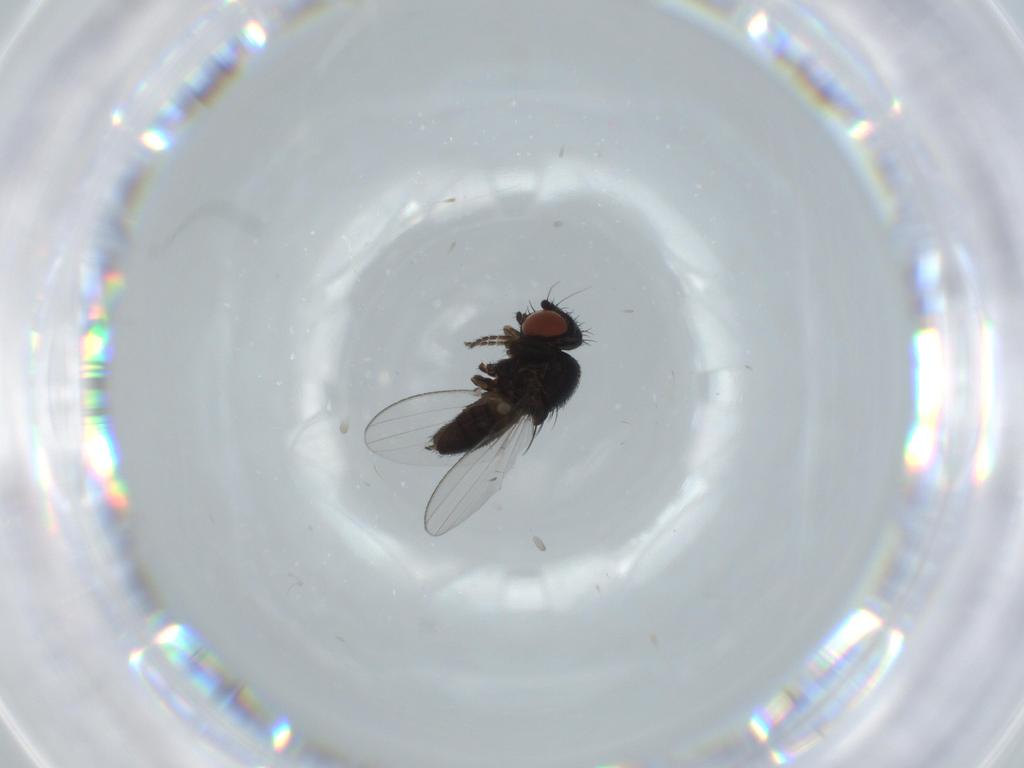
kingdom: Animalia
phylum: Arthropoda
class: Insecta
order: Diptera
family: Milichiidae
